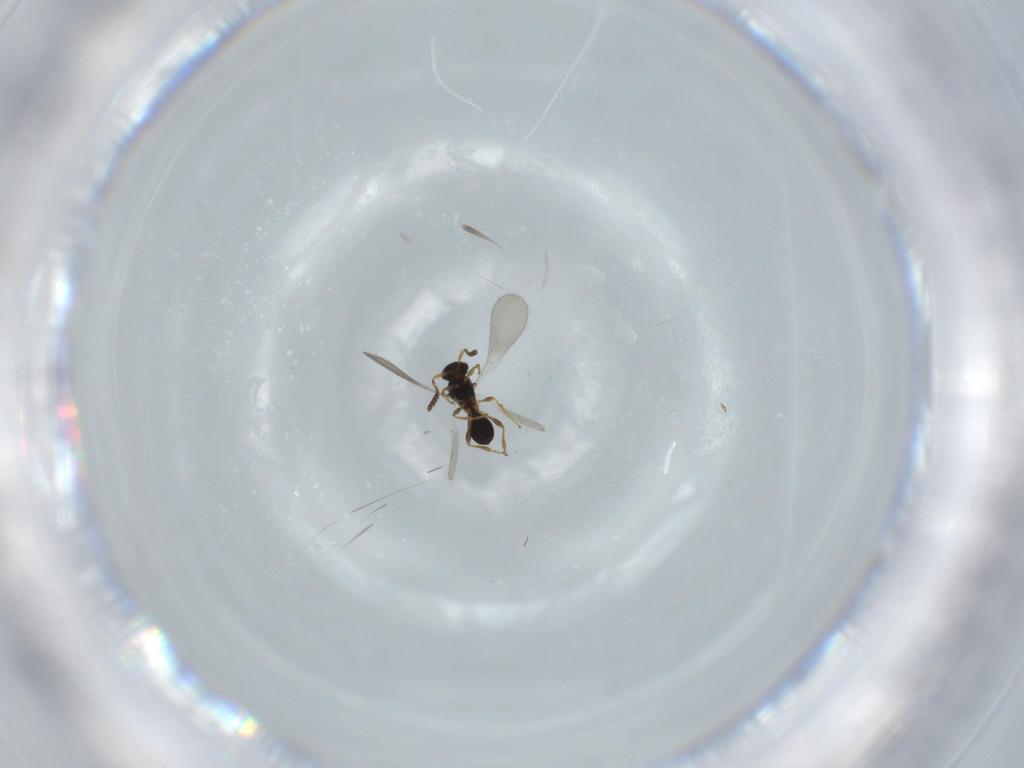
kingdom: Animalia
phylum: Arthropoda
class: Insecta
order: Hymenoptera
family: Platygastridae
